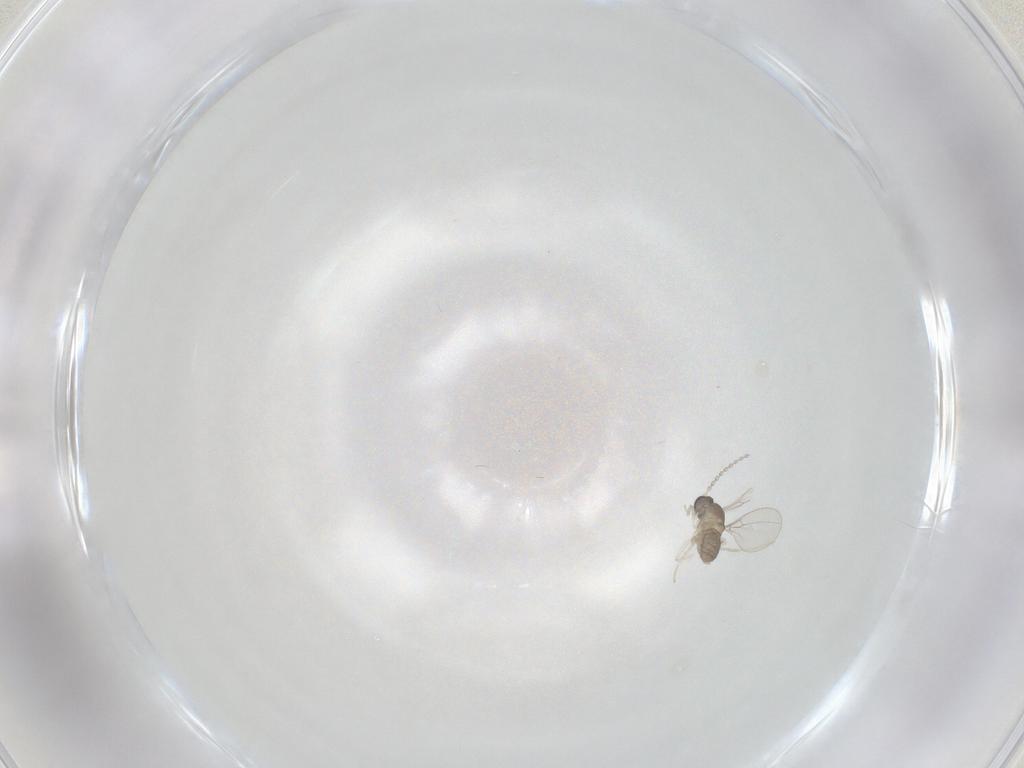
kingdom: Animalia
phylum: Arthropoda
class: Insecta
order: Diptera
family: Cecidomyiidae
